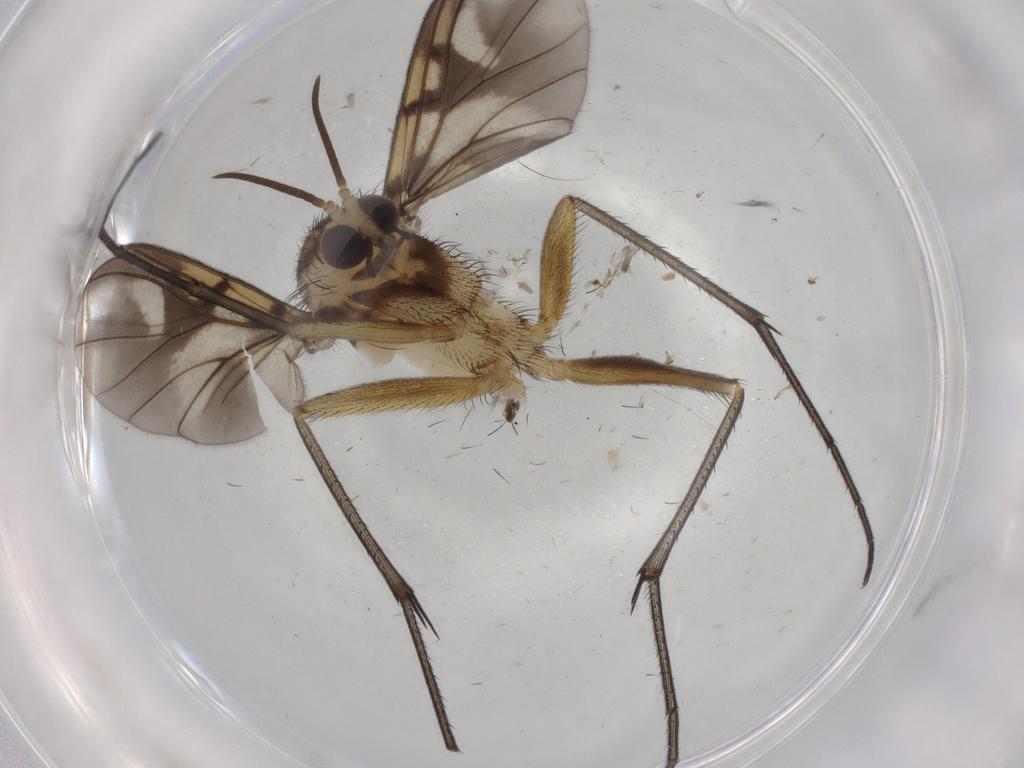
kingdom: Animalia
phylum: Arthropoda
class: Insecta
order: Diptera
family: Mycetophilidae
